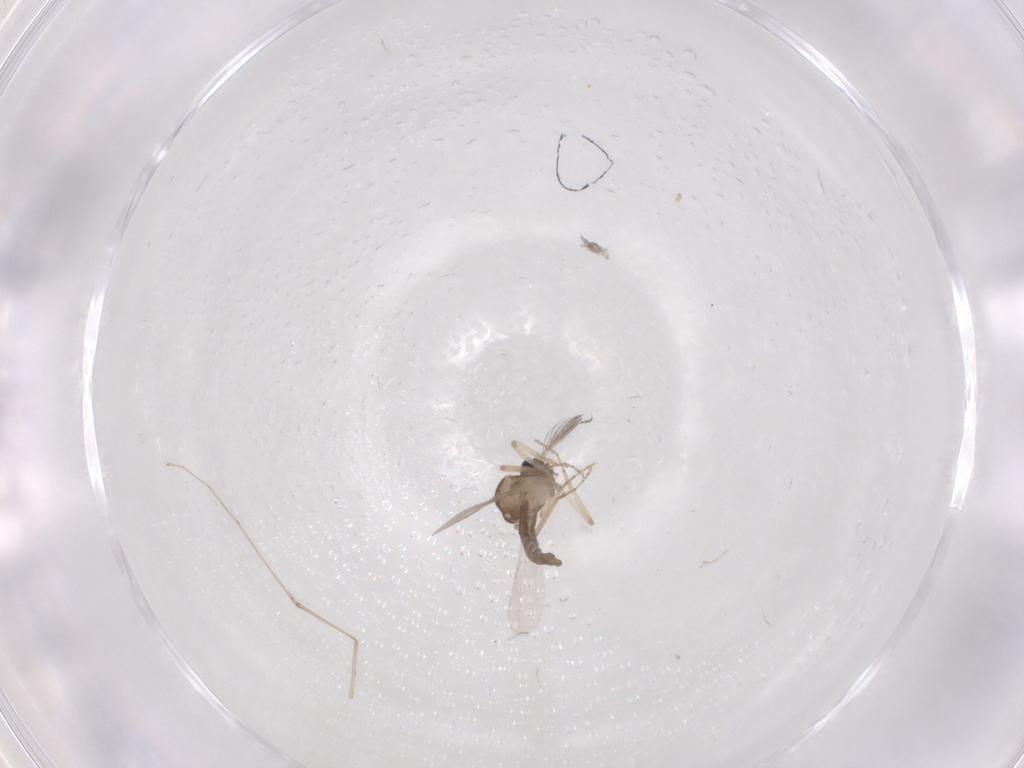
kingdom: Animalia
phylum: Arthropoda
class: Insecta
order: Diptera
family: Ceratopogonidae
